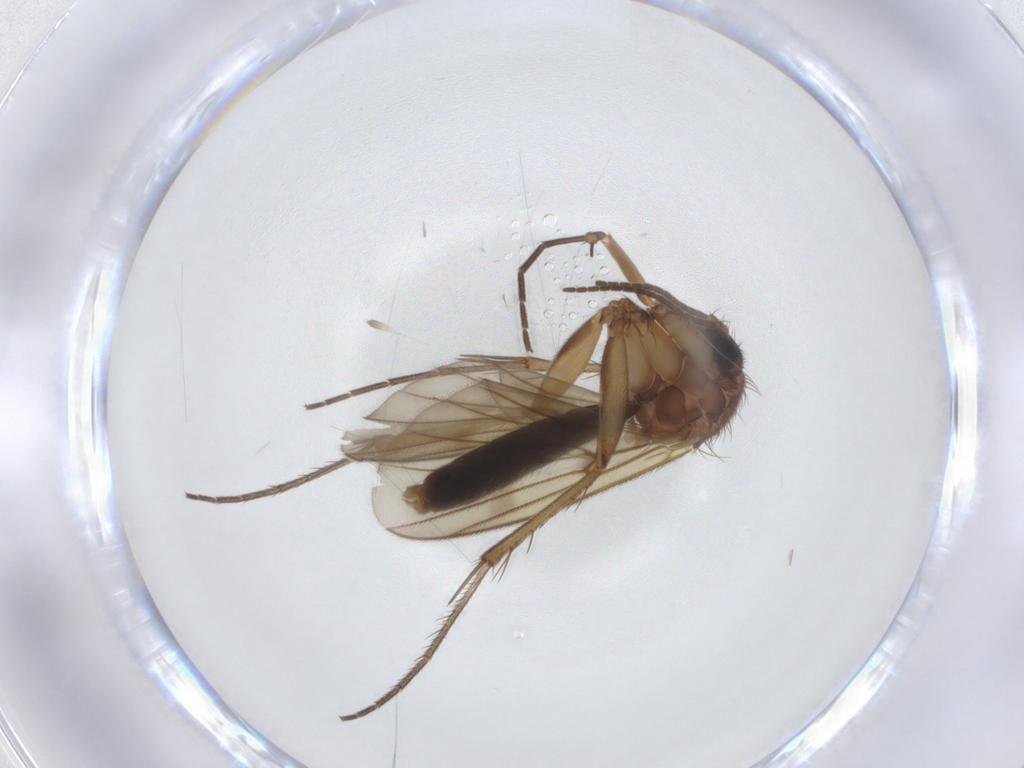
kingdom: Animalia
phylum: Arthropoda
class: Insecta
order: Diptera
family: Mycetophilidae
